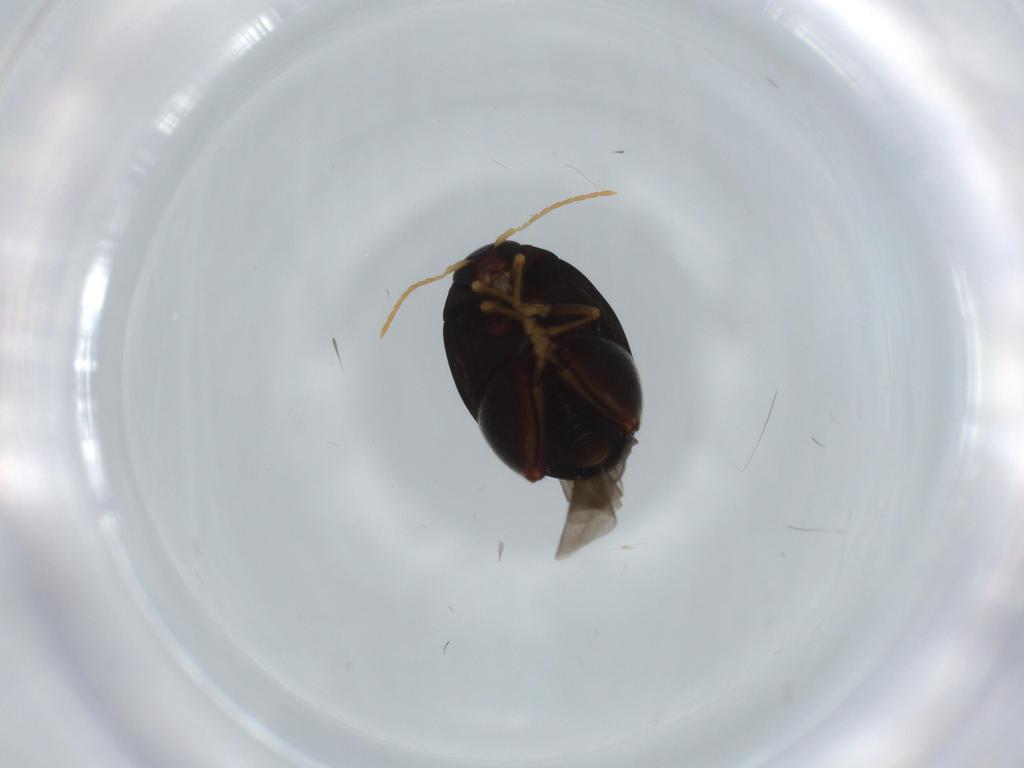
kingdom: Animalia
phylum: Arthropoda
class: Insecta
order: Coleoptera
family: Chrysomelidae
